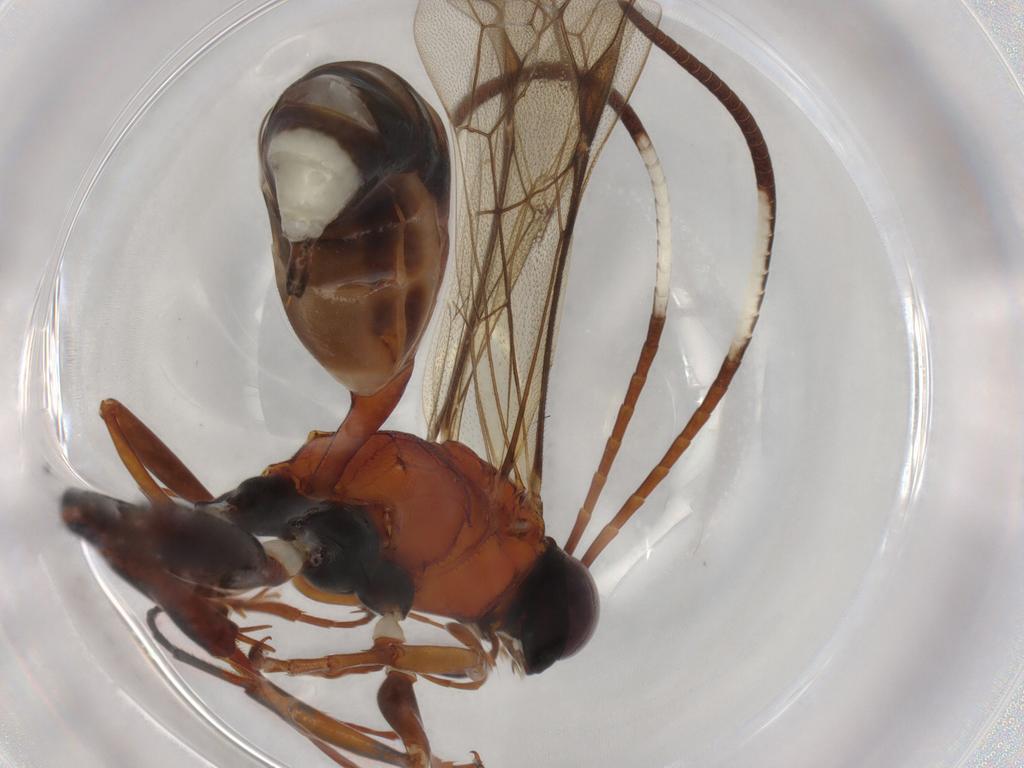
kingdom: Animalia
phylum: Arthropoda
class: Insecta
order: Hymenoptera
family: Ichneumonidae
